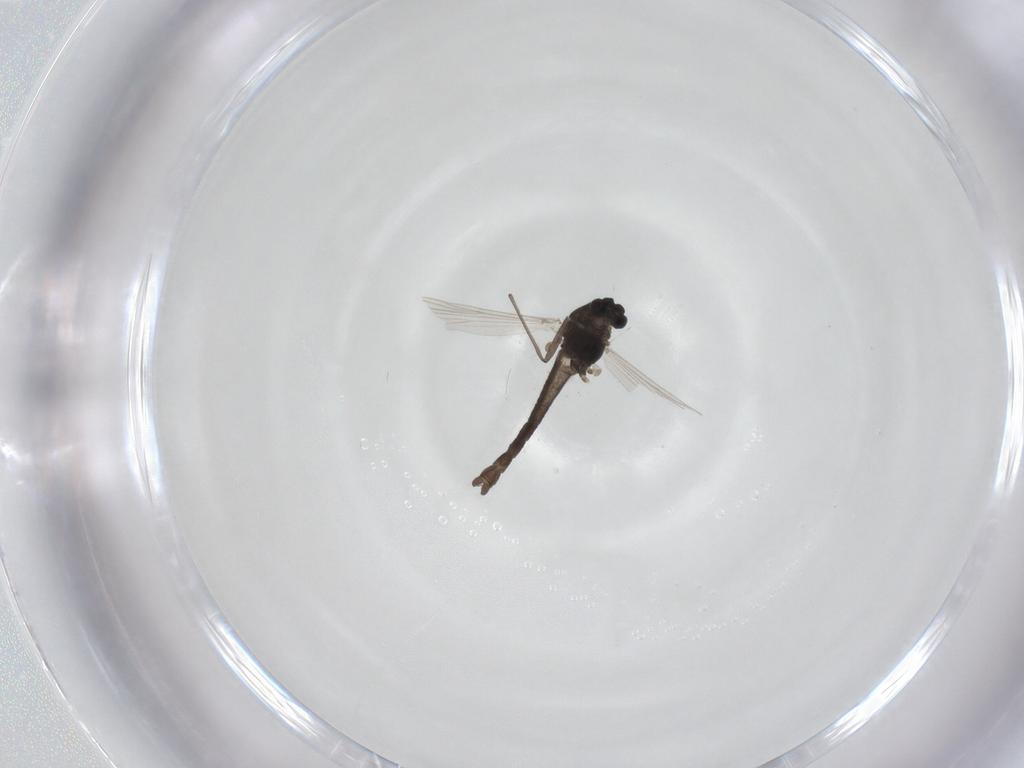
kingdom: Animalia
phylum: Arthropoda
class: Insecta
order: Diptera
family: Chironomidae
